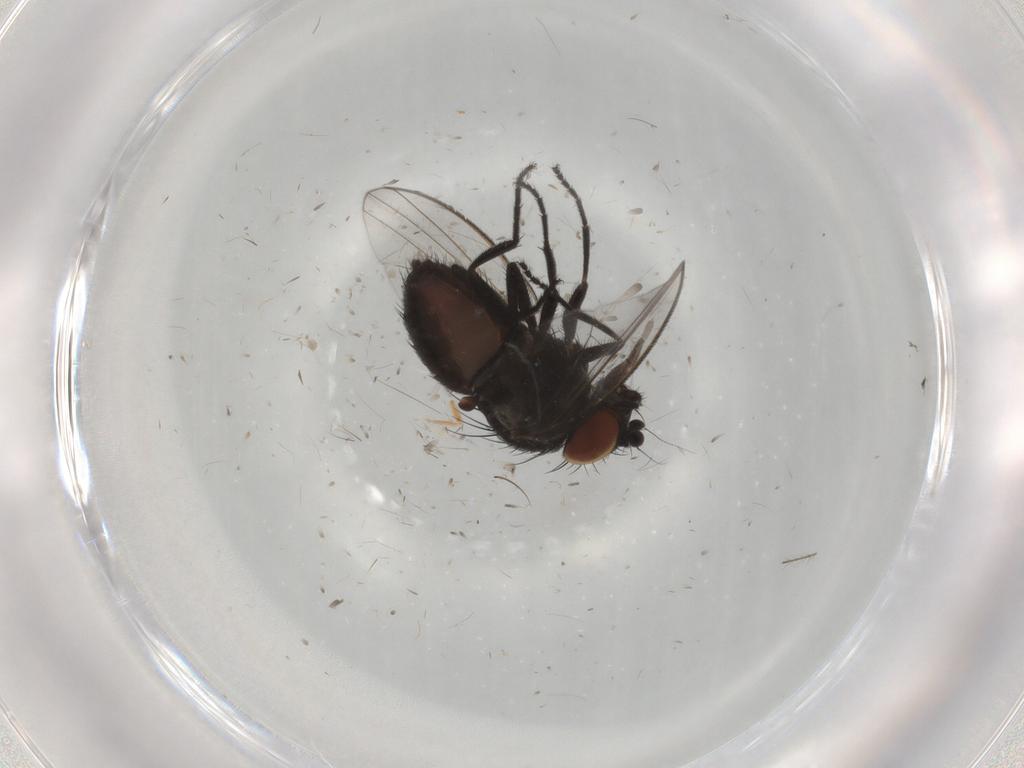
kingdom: Animalia
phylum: Arthropoda
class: Insecta
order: Diptera
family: Milichiidae
